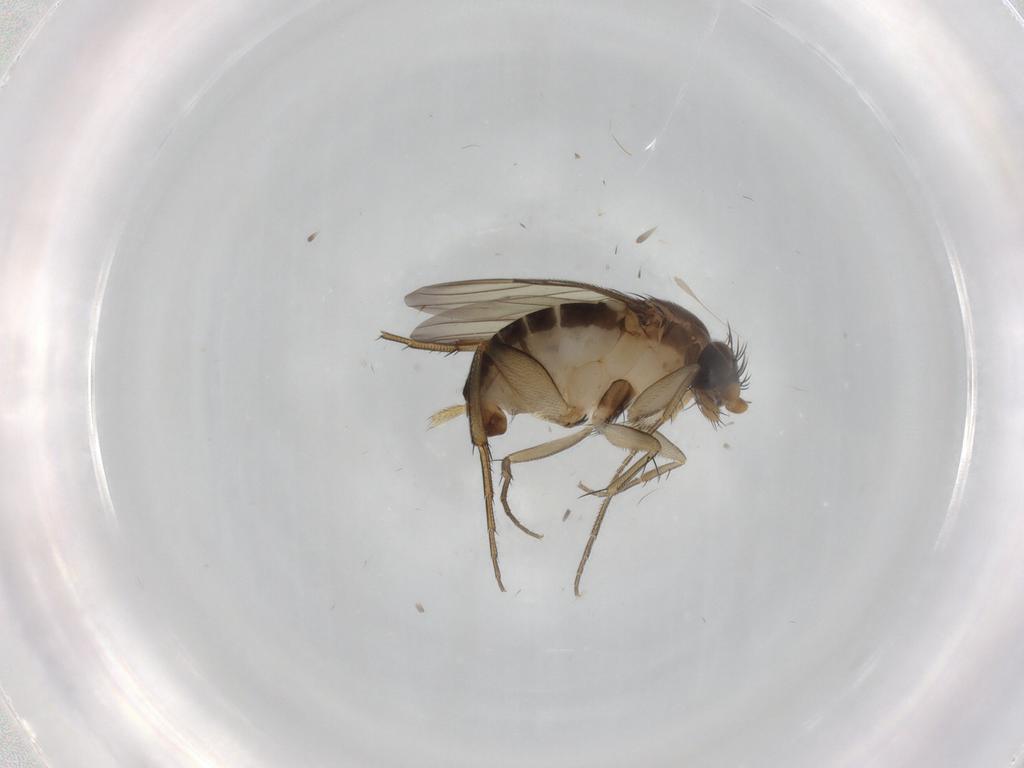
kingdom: Animalia
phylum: Arthropoda
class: Insecta
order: Diptera
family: Phoridae
